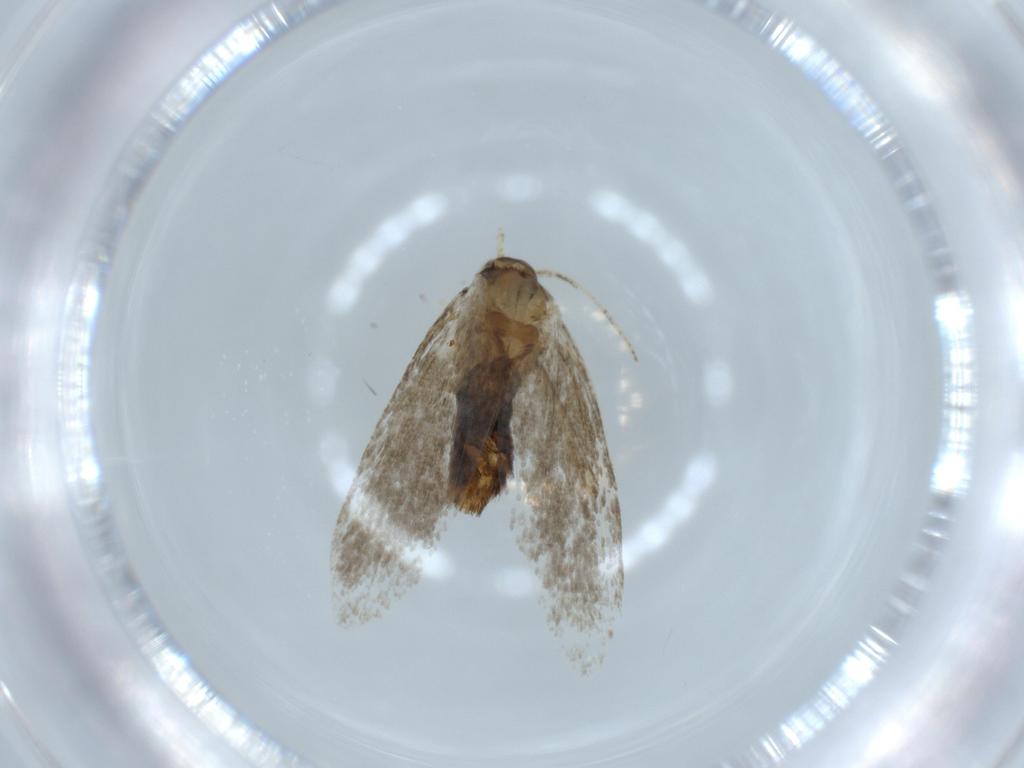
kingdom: Animalia
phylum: Arthropoda
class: Insecta
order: Lepidoptera
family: Tineidae
